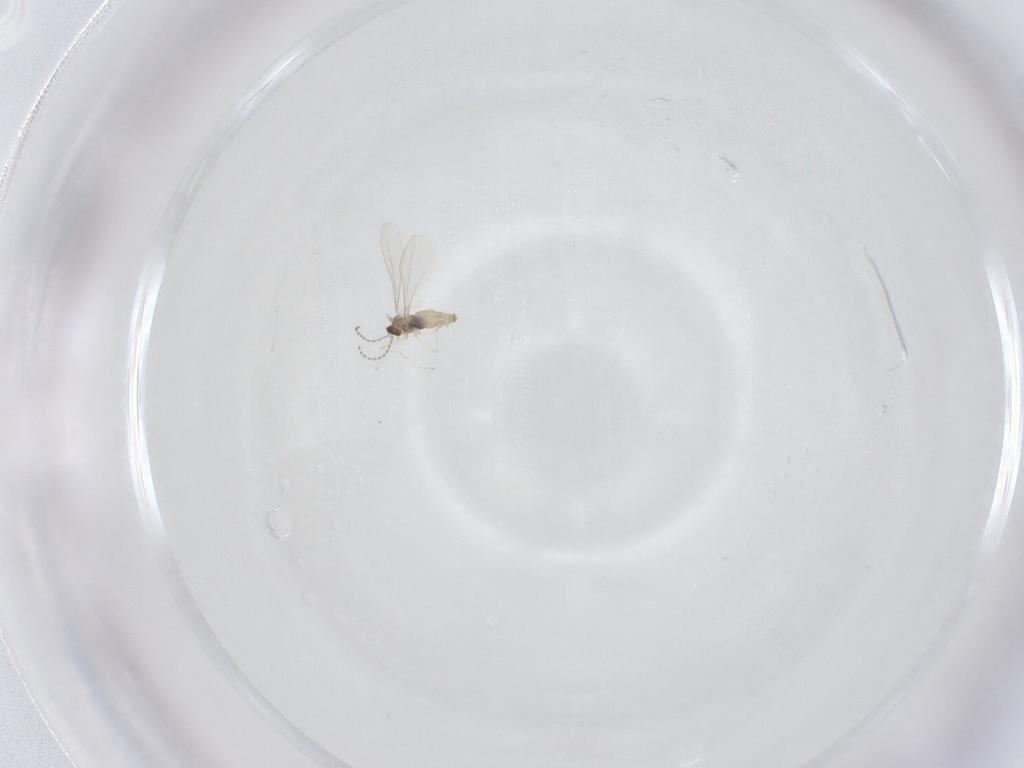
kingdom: Animalia
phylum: Arthropoda
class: Insecta
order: Diptera
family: Cecidomyiidae
